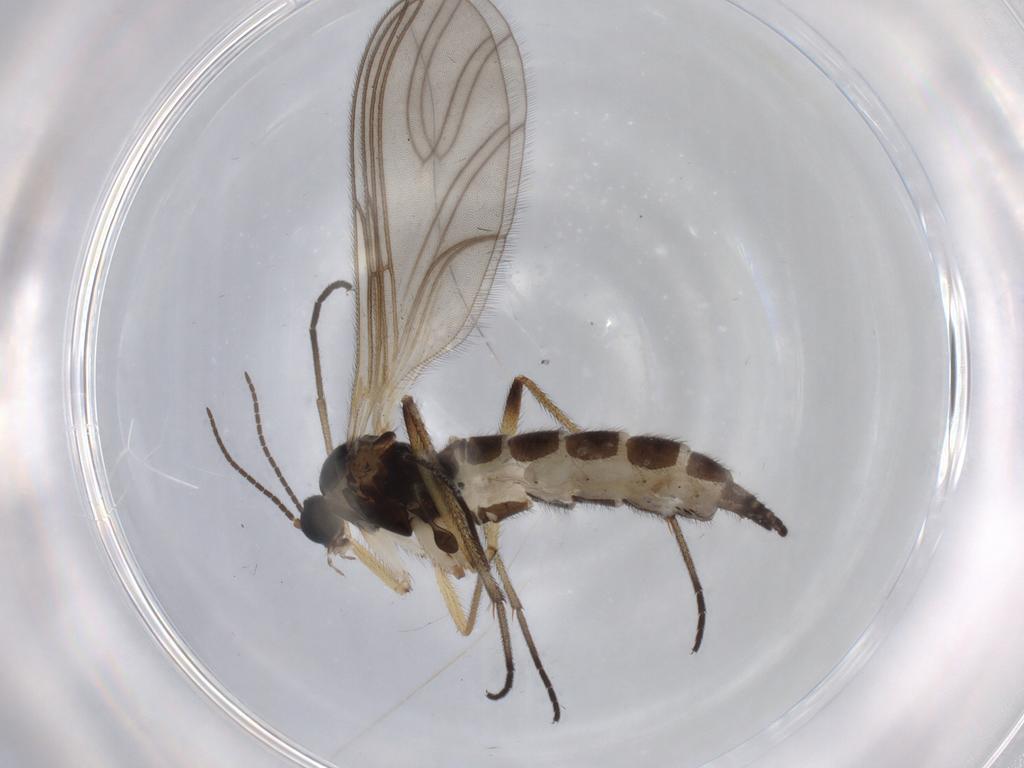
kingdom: Animalia
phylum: Arthropoda
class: Insecta
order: Diptera
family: Sciaridae
